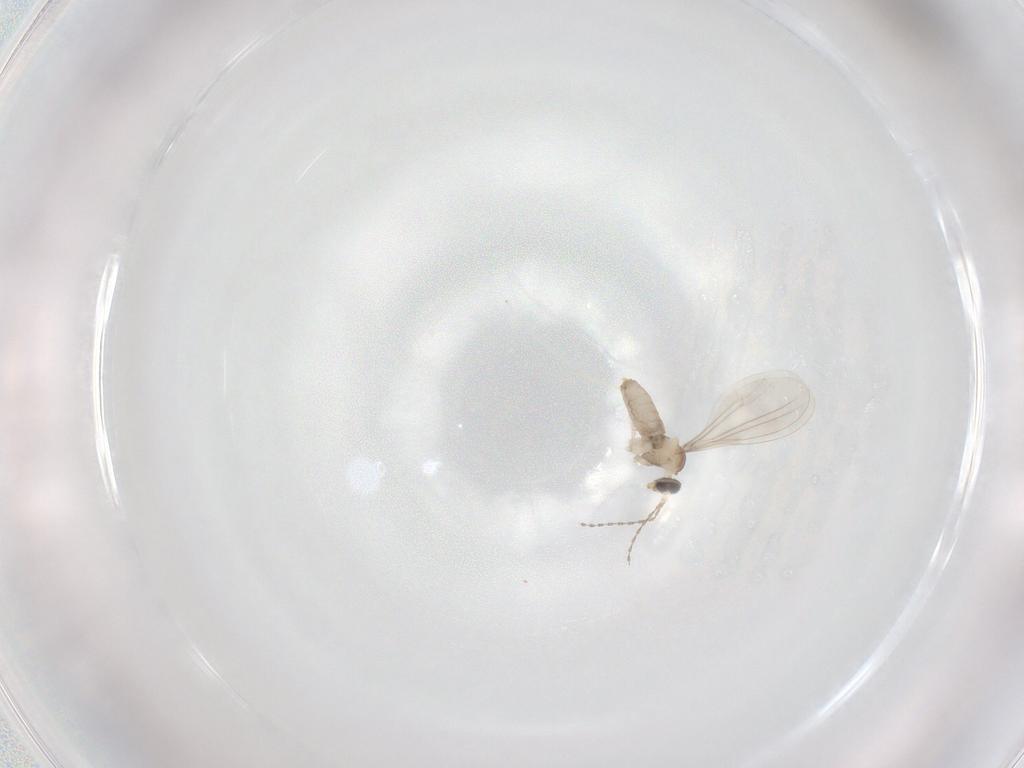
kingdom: Animalia
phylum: Arthropoda
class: Insecta
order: Diptera
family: Cecidomyiidae
